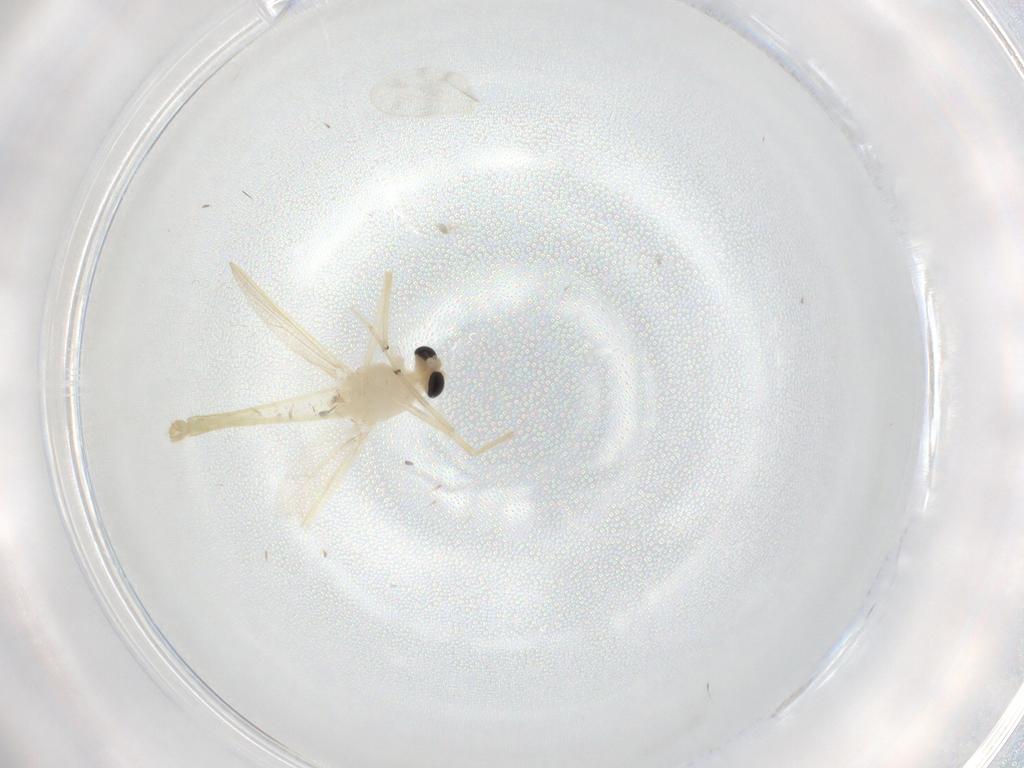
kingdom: Animalia
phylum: Arthropoda
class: Insecta
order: Diptera
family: Cecidomyiidae
